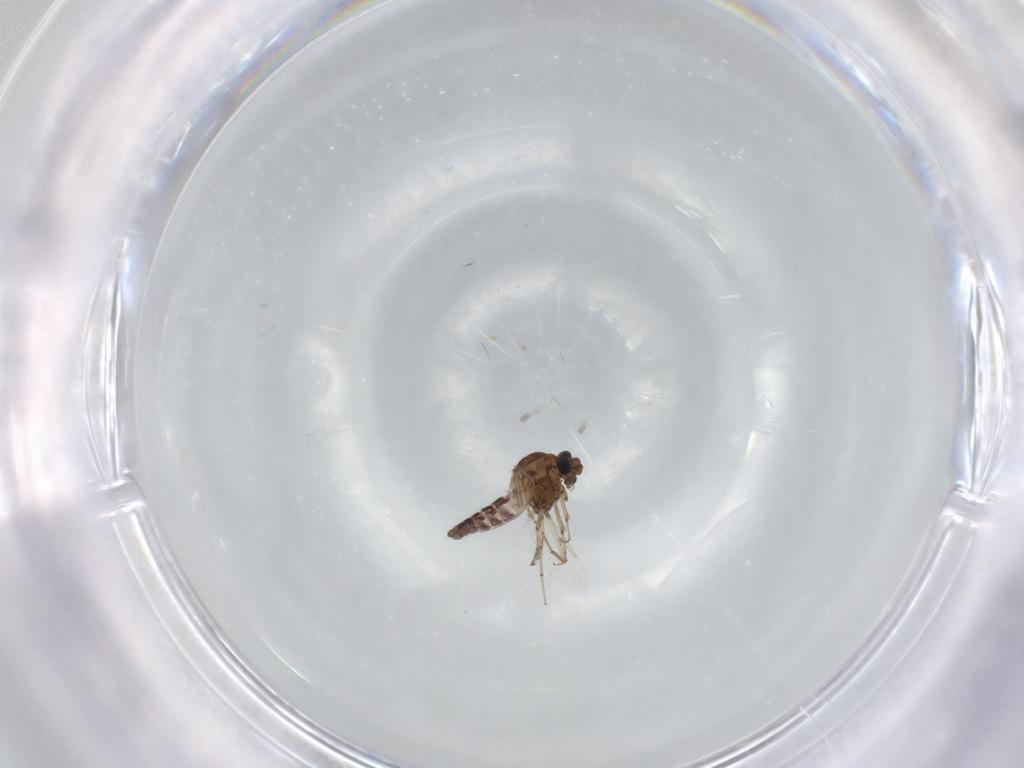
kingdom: Animalia
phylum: Arthropoda
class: Insecta
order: Diptera
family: Ceratopogonidae
